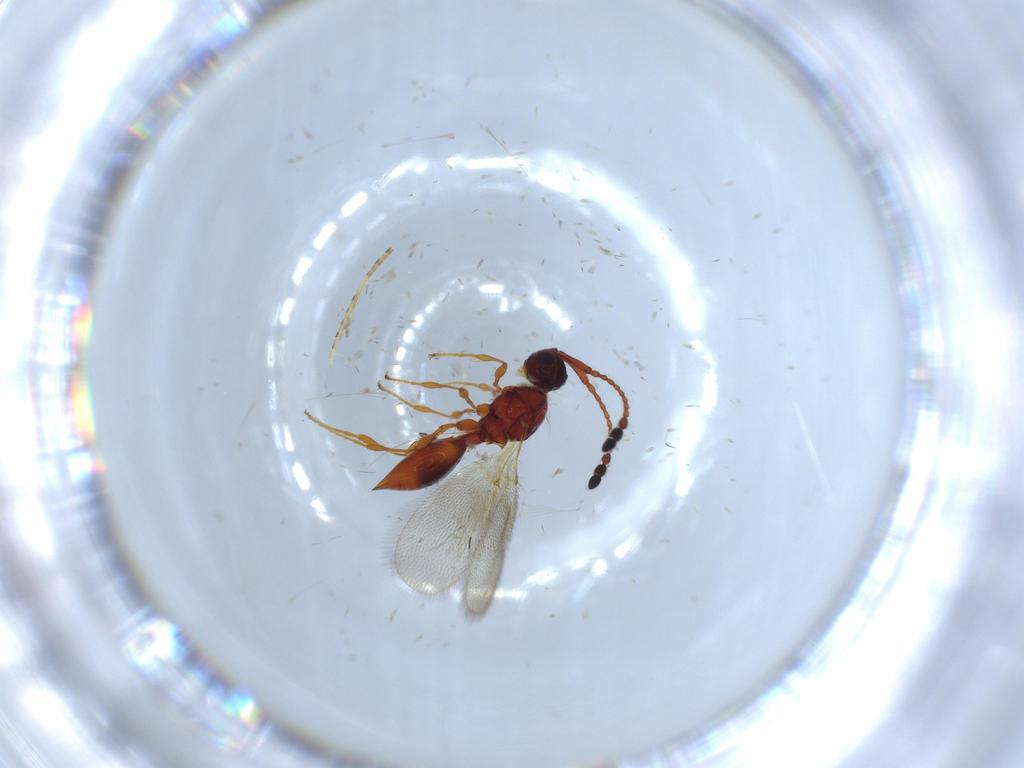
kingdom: Animalia
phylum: Arthropoda
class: Insecta
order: Hymenoptera
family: Diapriidae
